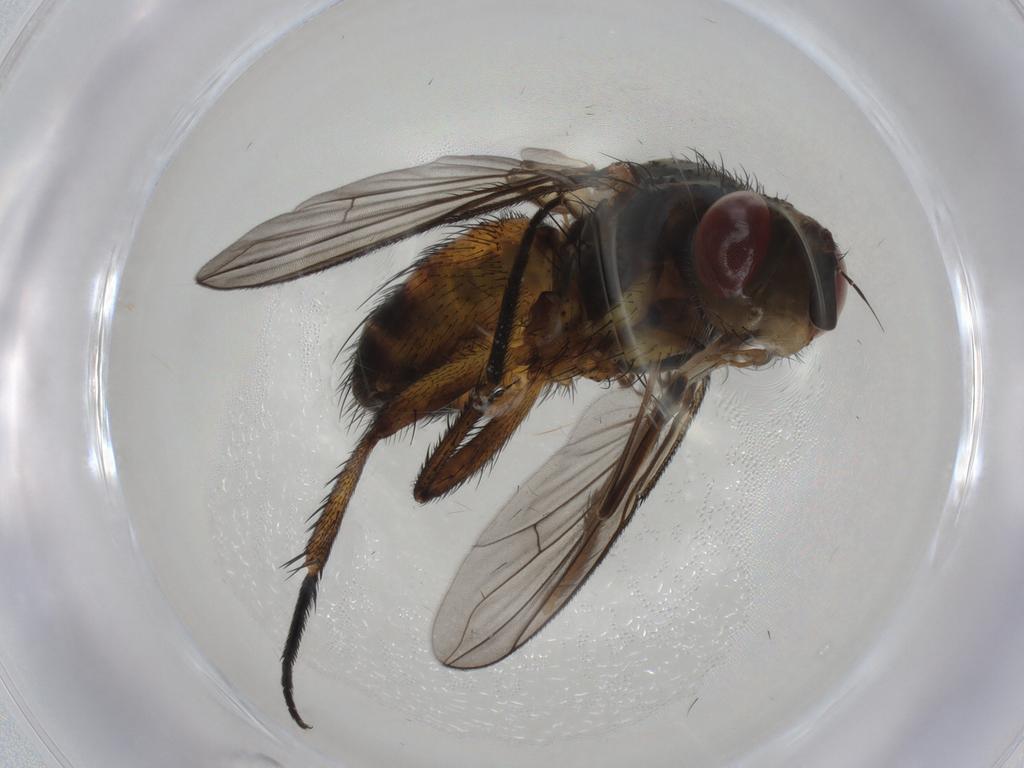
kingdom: Animalia
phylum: Arthropoda
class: Insecta
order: Diptera
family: Tachinidae
